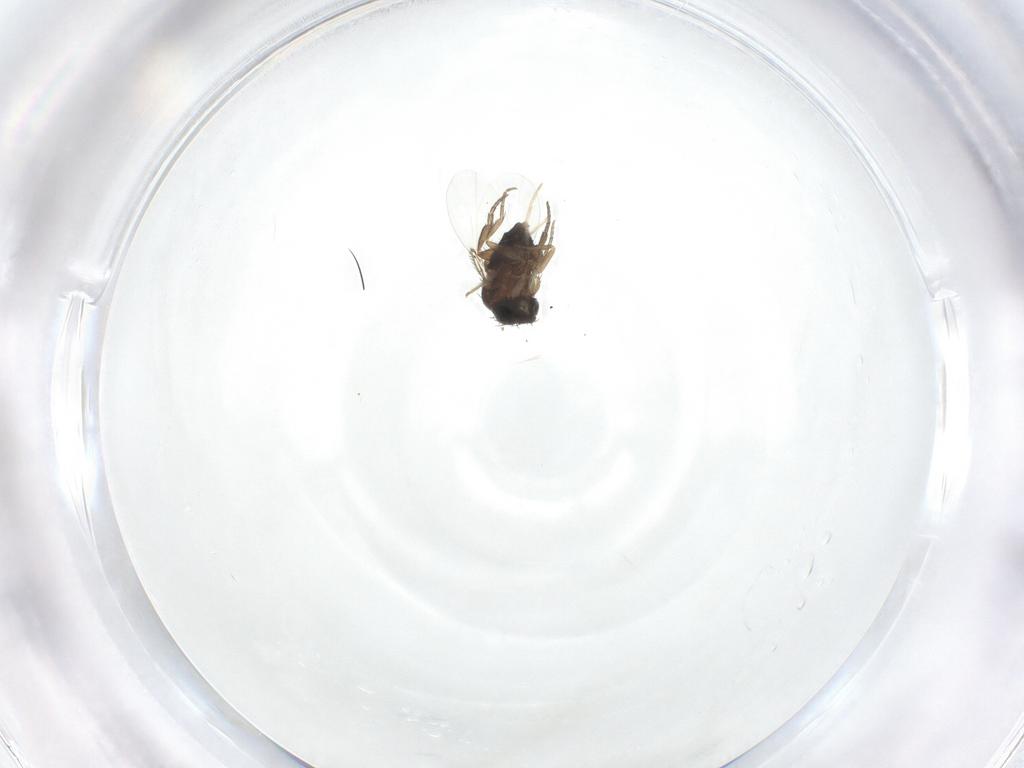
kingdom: Animalia
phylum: Arthropoda
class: Insecta
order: Diptera
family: Phoridae
